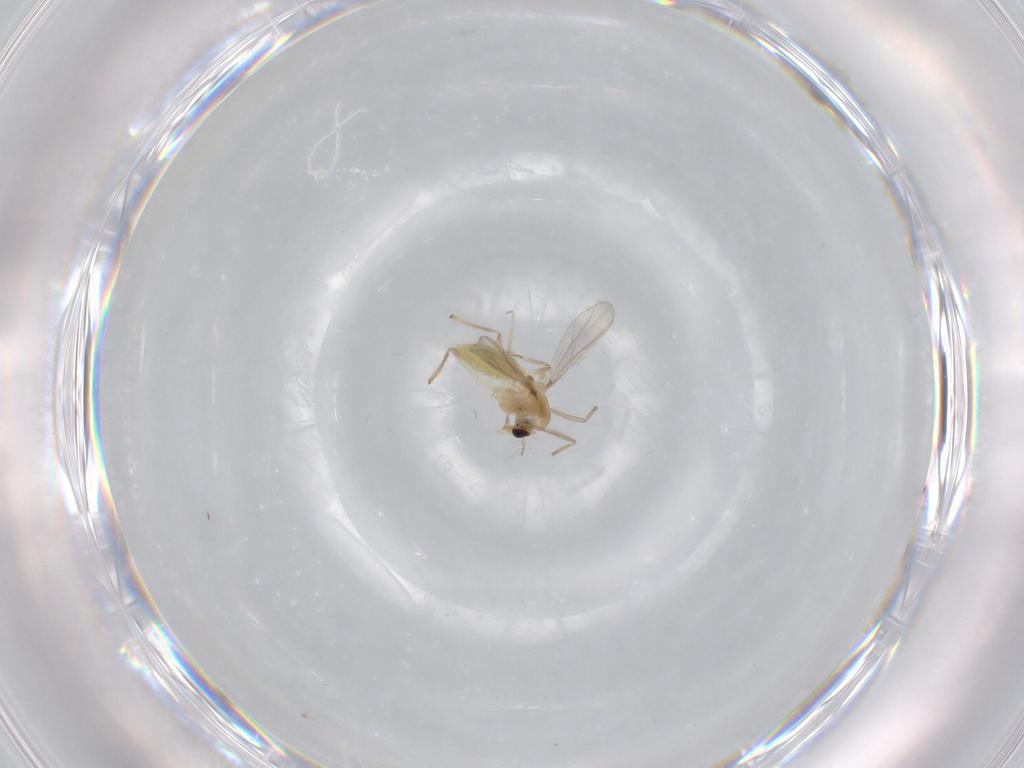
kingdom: Animalia
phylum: Arthropoda
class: Insecta
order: Diptera
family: Chironomidae
